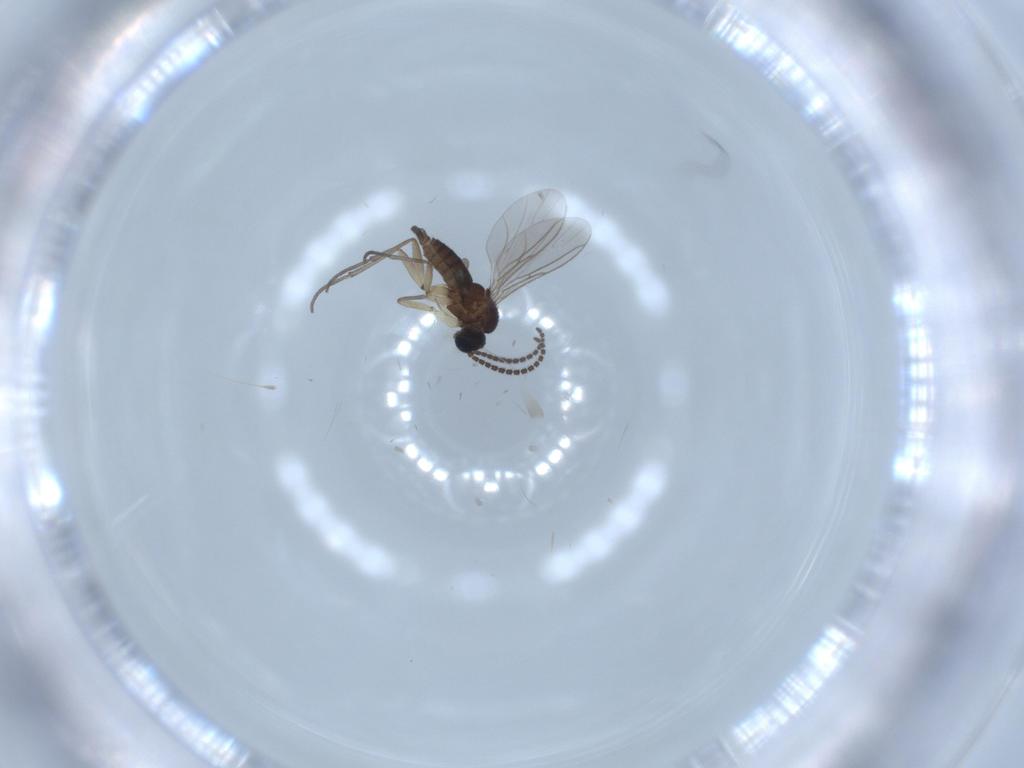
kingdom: Animalia
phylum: Arthropoda
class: Insecta
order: Diptera
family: Sciaridae
